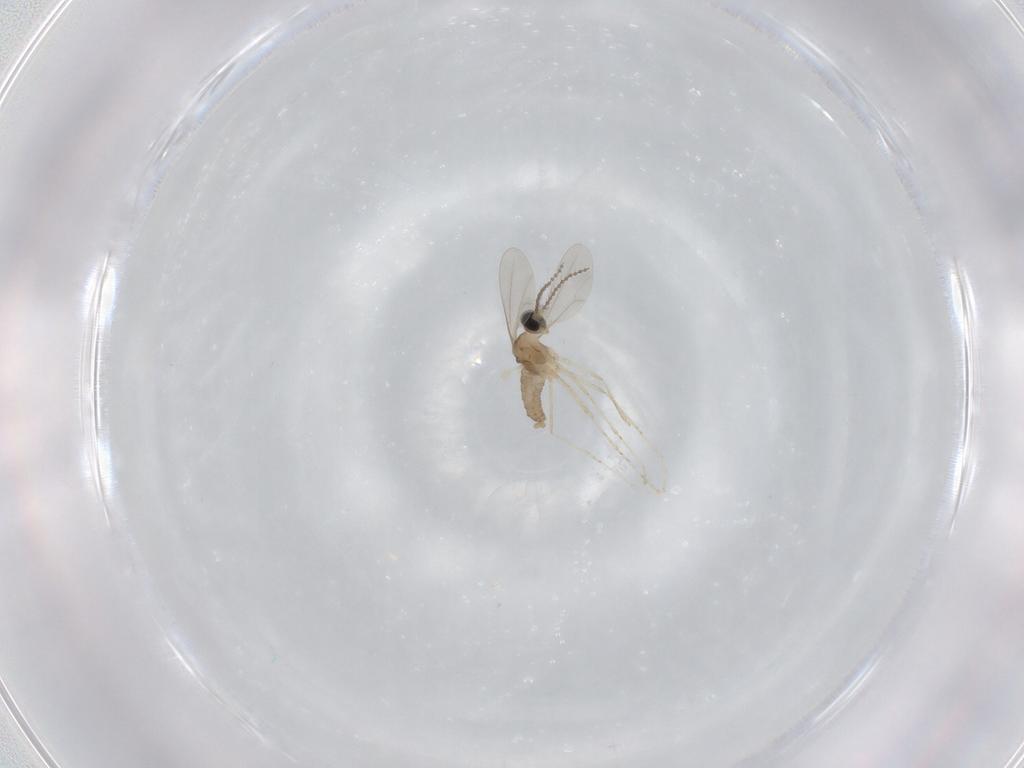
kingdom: Animalia
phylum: Arthropoda
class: Insecta
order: Diptera
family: Cecidomyiidae
